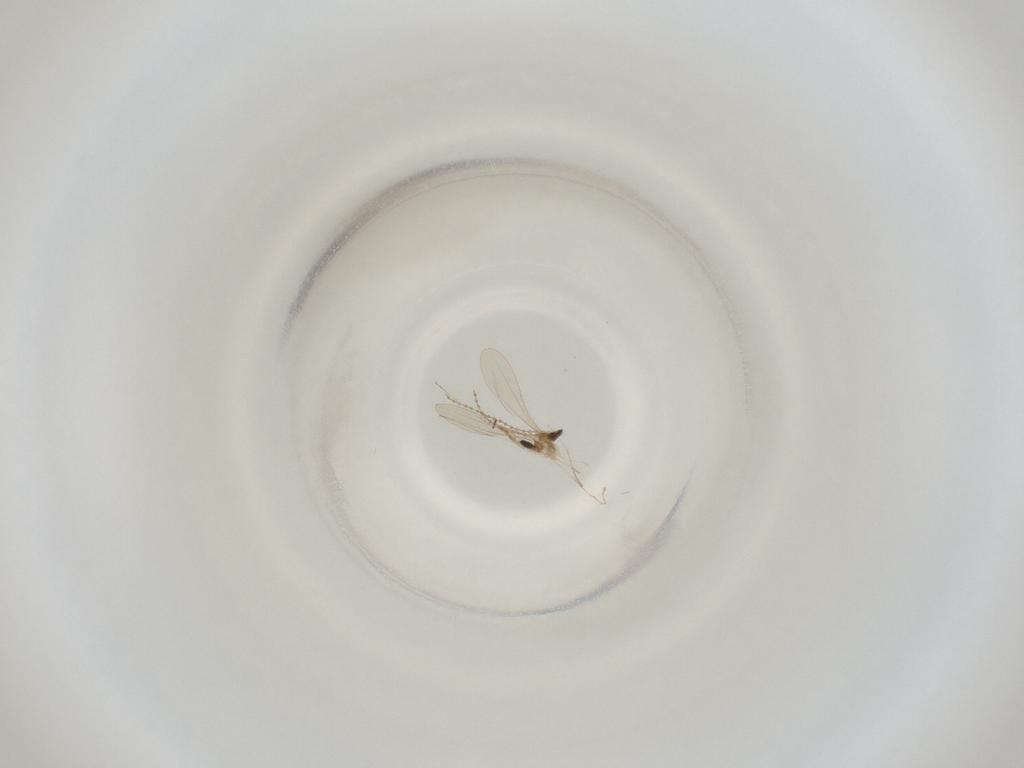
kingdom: Animalia
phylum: Arthropoda
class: Insecta
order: Diptera
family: Cecidomyiidae
